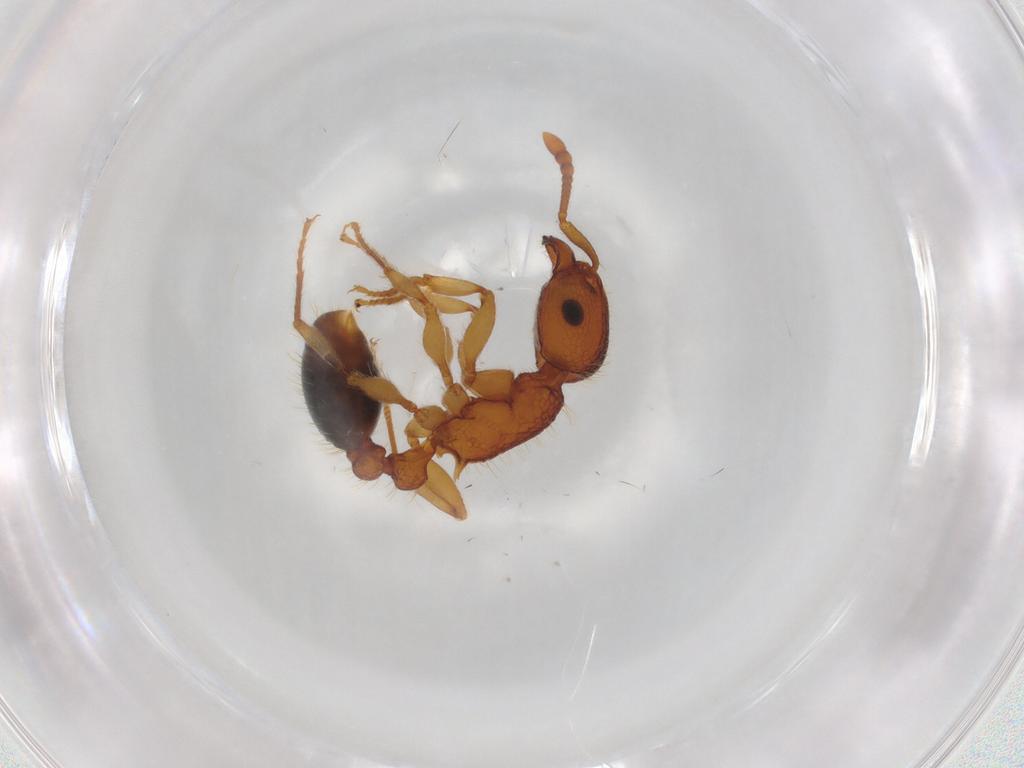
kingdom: Animalia
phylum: Arthropoda
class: Insecta
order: Hymenoptera
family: Formicidae
